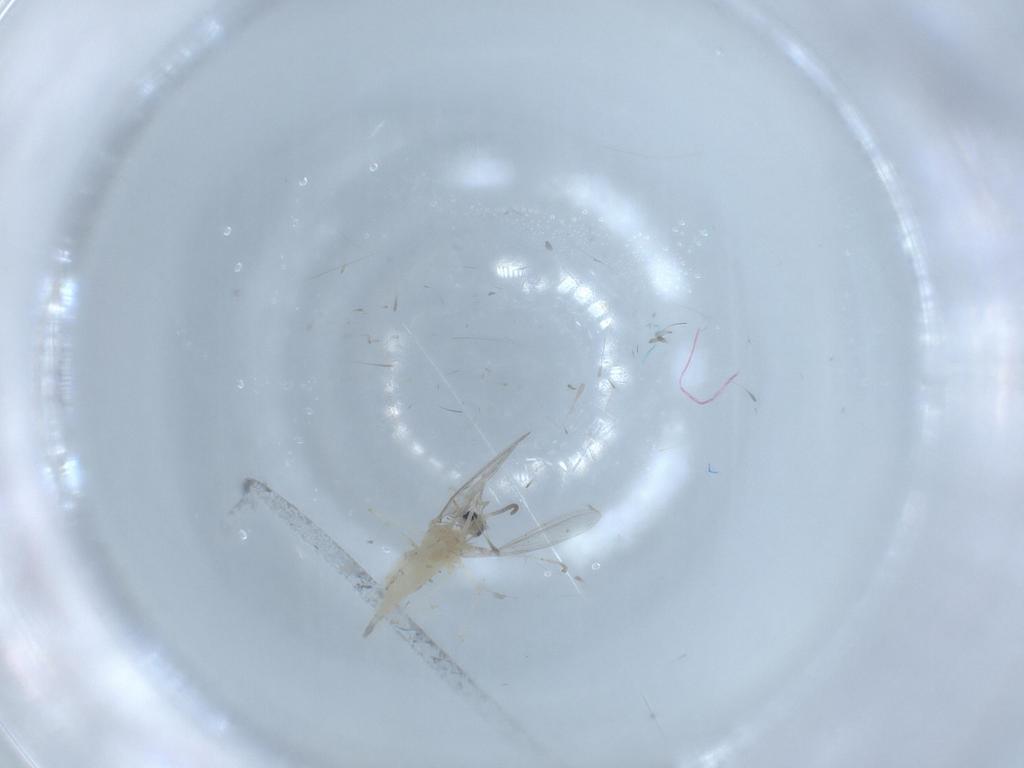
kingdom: Animalia
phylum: Arthropoda
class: Insecta
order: Diptera
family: Cecidomyiidae
